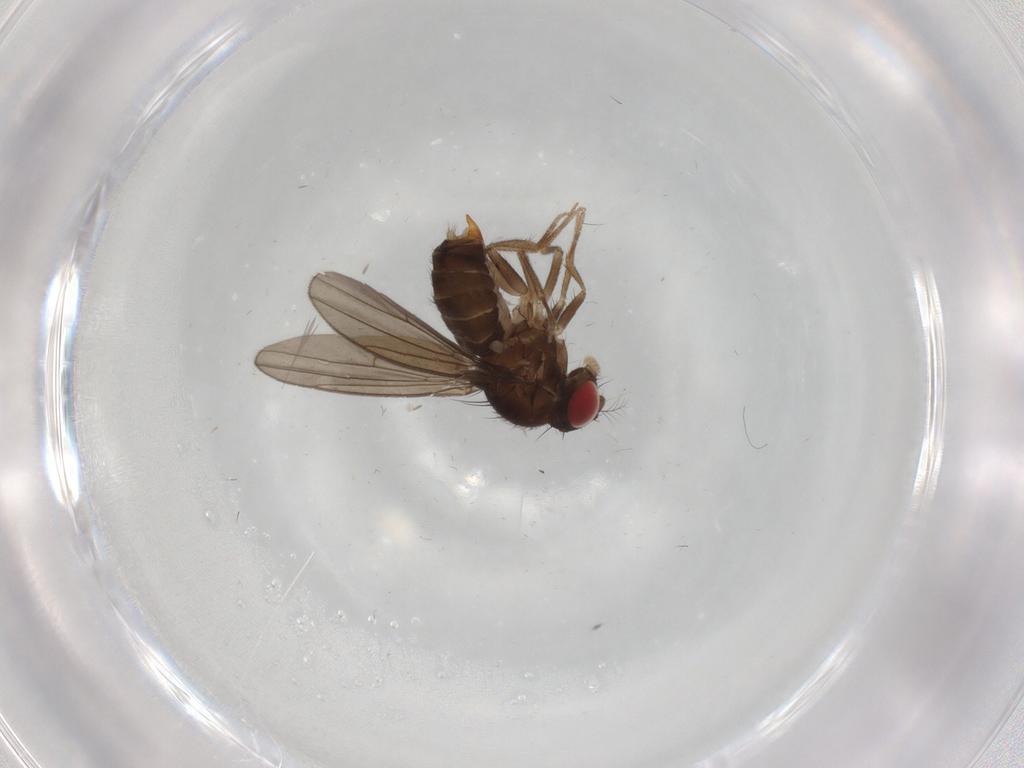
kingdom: Animalia
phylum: Arthropoda
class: Insecta
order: Diptera
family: Drosophilidae
